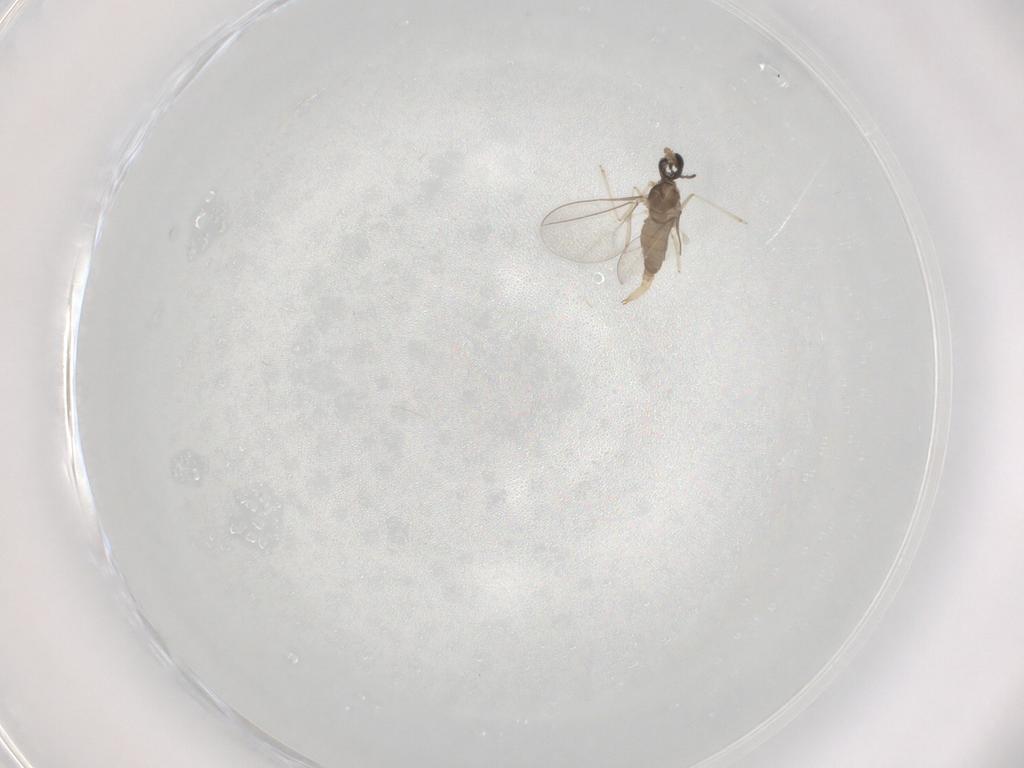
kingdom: Animalia
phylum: Arthropoda
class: Insecta
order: Diptera
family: Cecidomyiidae
